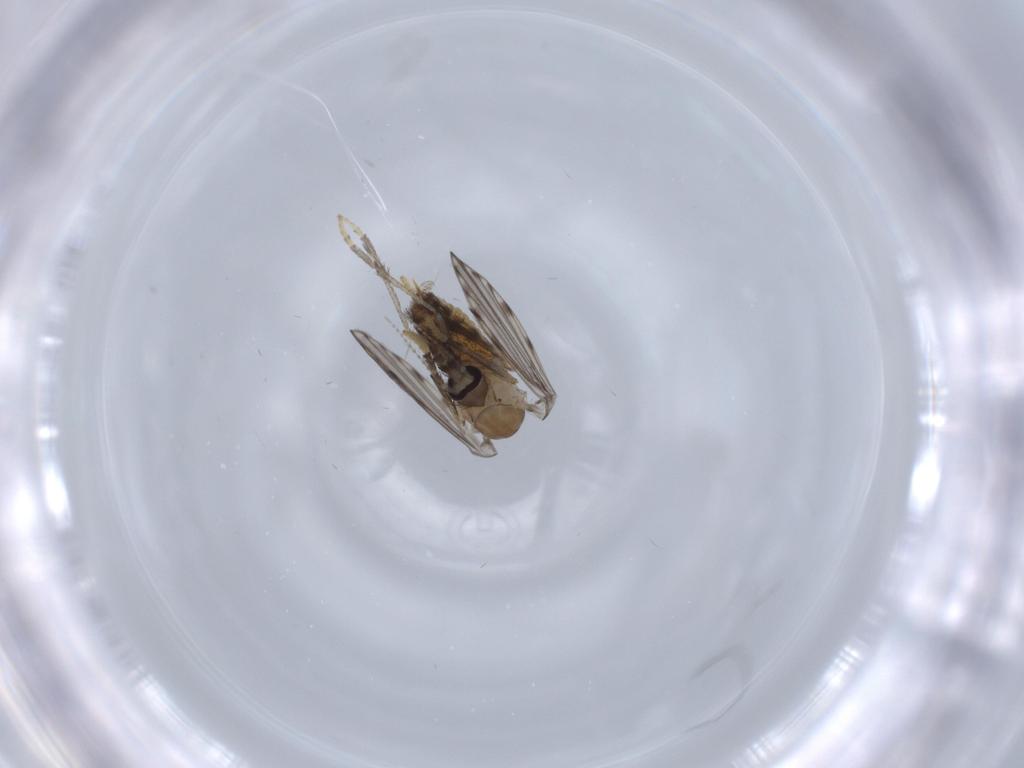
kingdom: Animalia
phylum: Arthropoda
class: Insecta
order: Diptera
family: Psychodidae
